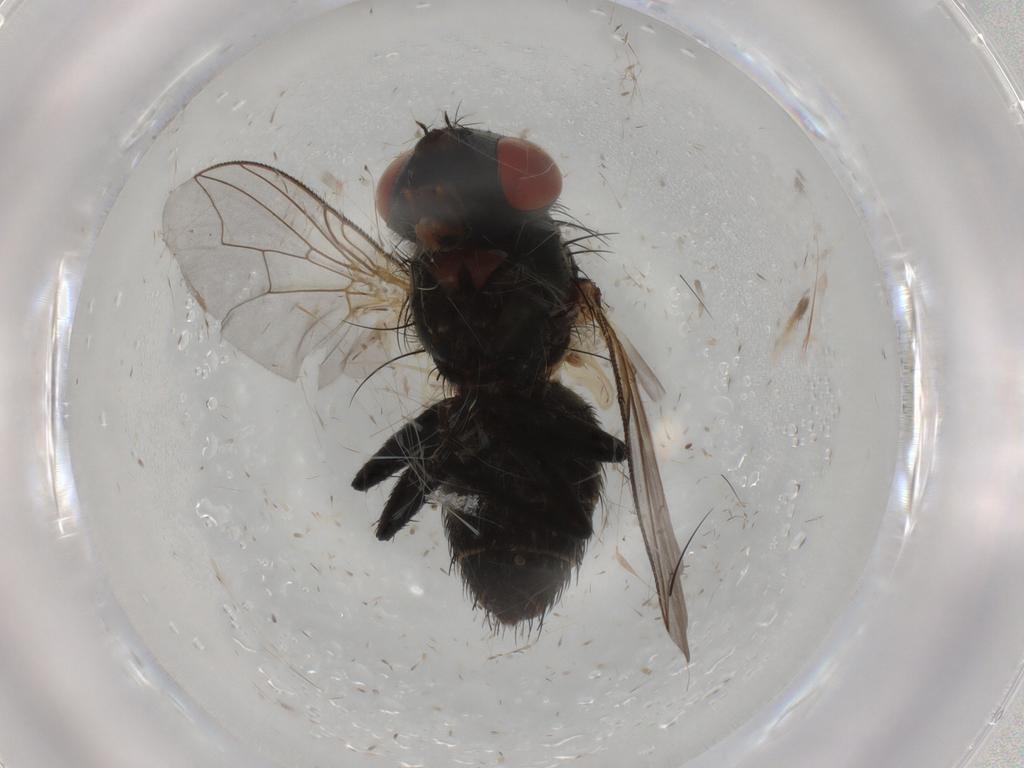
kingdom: Animalia
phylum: Arthropoda
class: Insecta
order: Diptera
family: Sarcophagidae
